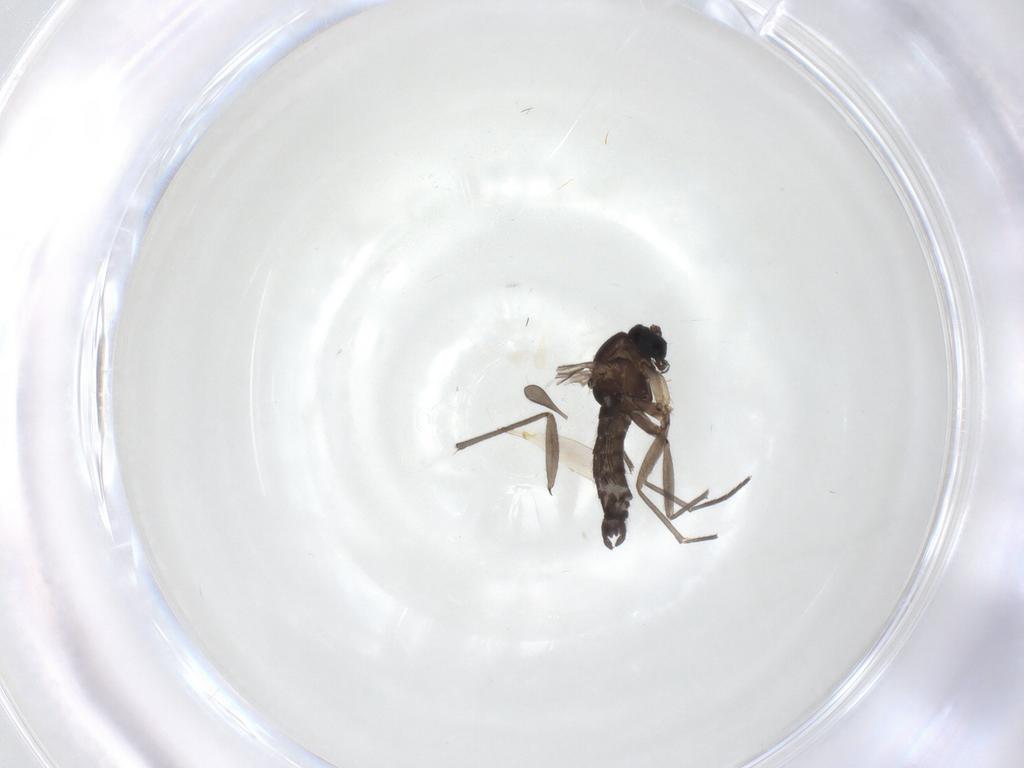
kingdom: Animalia
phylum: Arthropoda
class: Insecta
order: Diptera
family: Sciaridae
